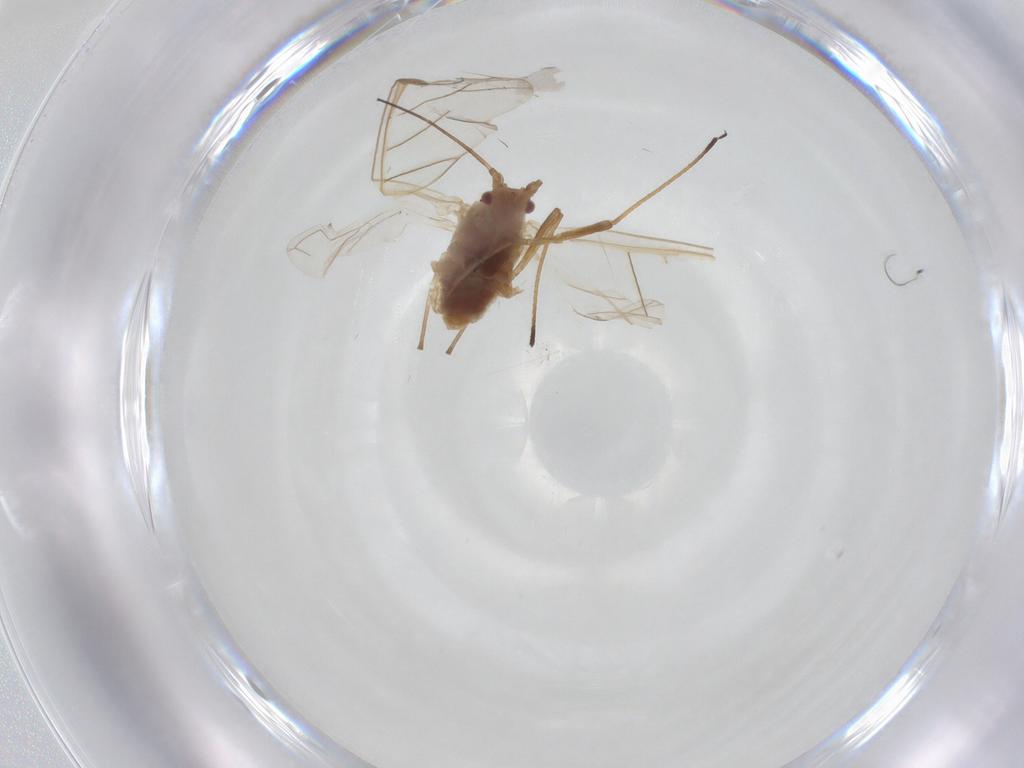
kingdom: Animalia
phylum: Arthropoda
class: Insecta
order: Hemiptera
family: Aphididae
